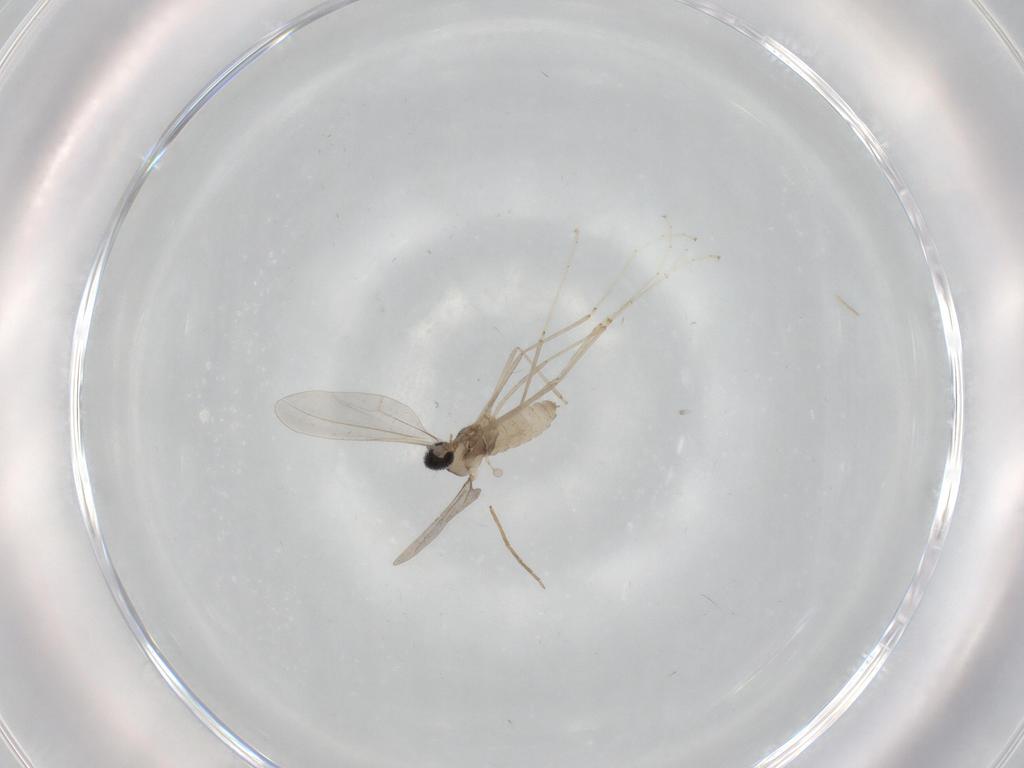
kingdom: Animalia
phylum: Arthropoda
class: Insecta
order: Diptera
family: Cecidomyiidae
